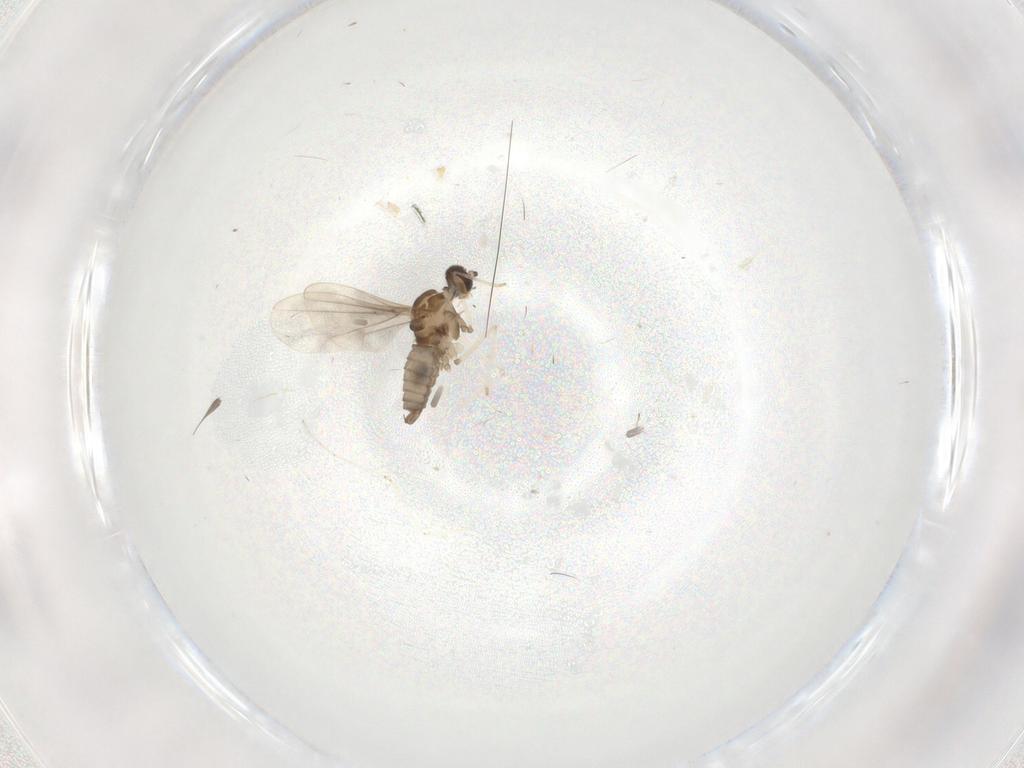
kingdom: Animalia
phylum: Arthropoda
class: Insecta
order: Diptera
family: Cecidomyiidae
